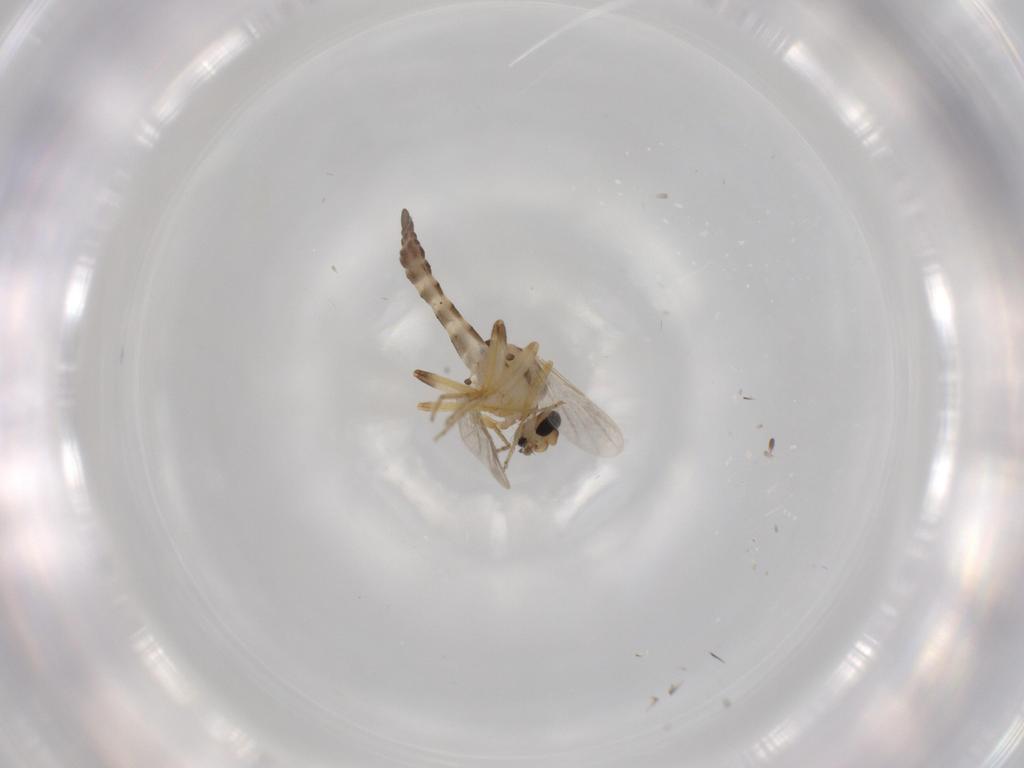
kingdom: Animalia
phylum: Arthropoda
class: Insecta
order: Diptera
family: Ceratopogonidae
